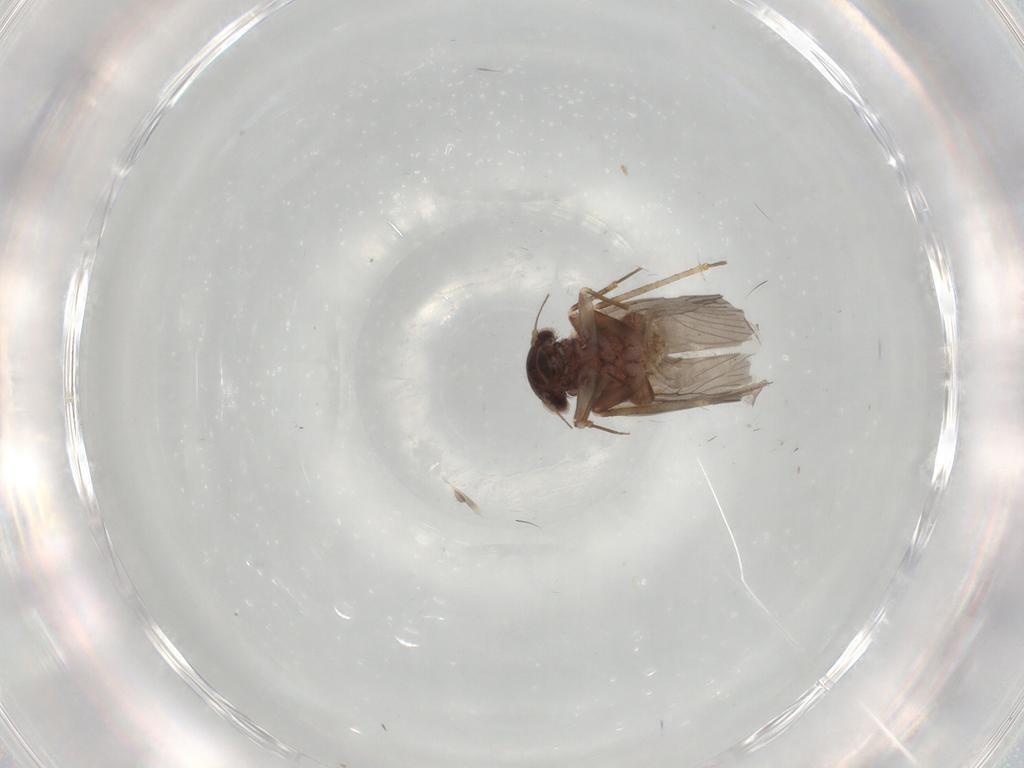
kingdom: Animalia
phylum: Arthropoda
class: Insecta
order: Psocodea
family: Lepidopsocidae
